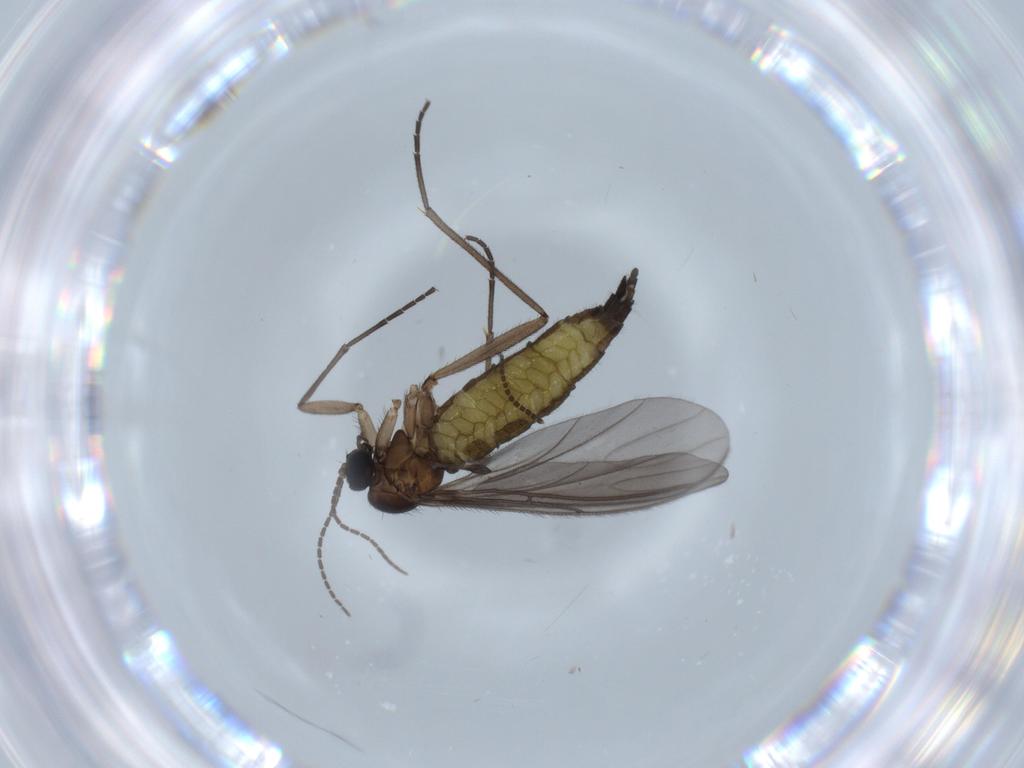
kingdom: Animalia
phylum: Arthropoda
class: Insecta
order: Diptera
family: Sciaridae
